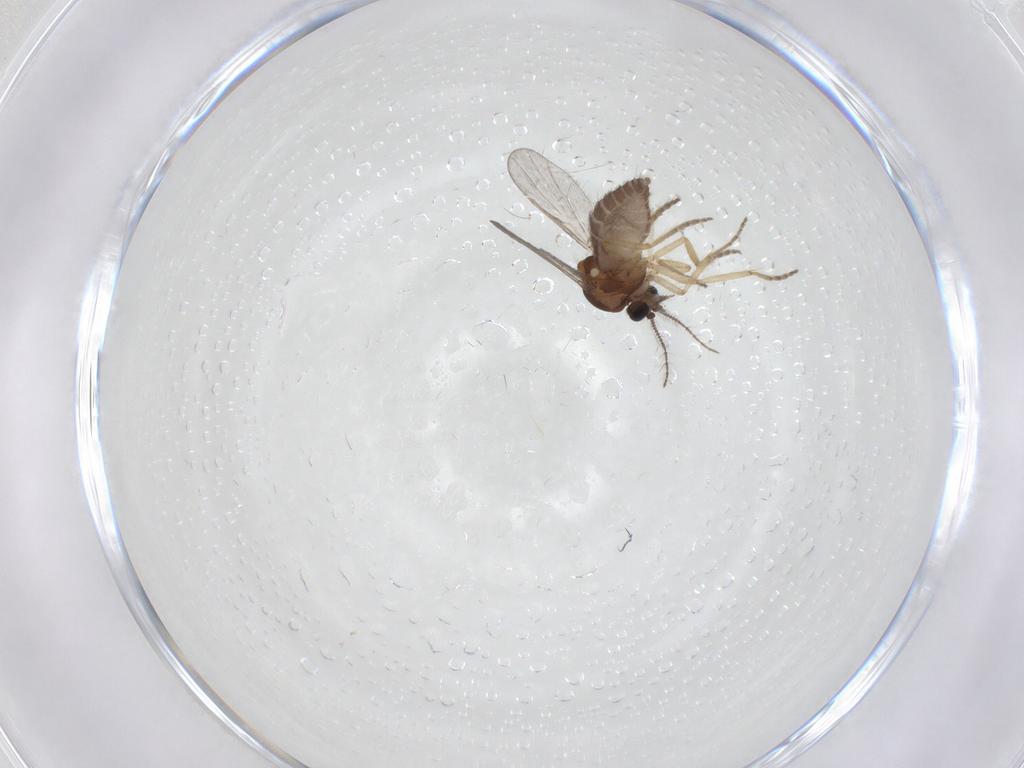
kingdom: Animalia
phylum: Arthropoda
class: Insecta
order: Diptera
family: Ceratopogonidae
